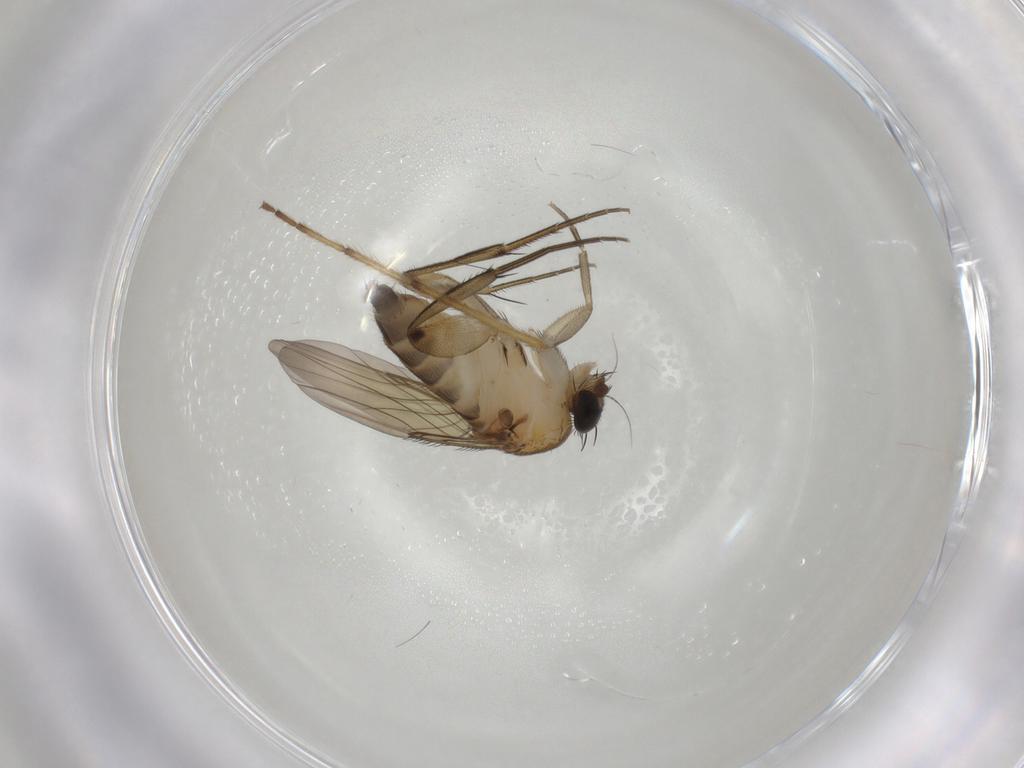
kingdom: Animalia
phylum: Arthropoda
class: Insecta
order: Diptera
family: Phoridae
